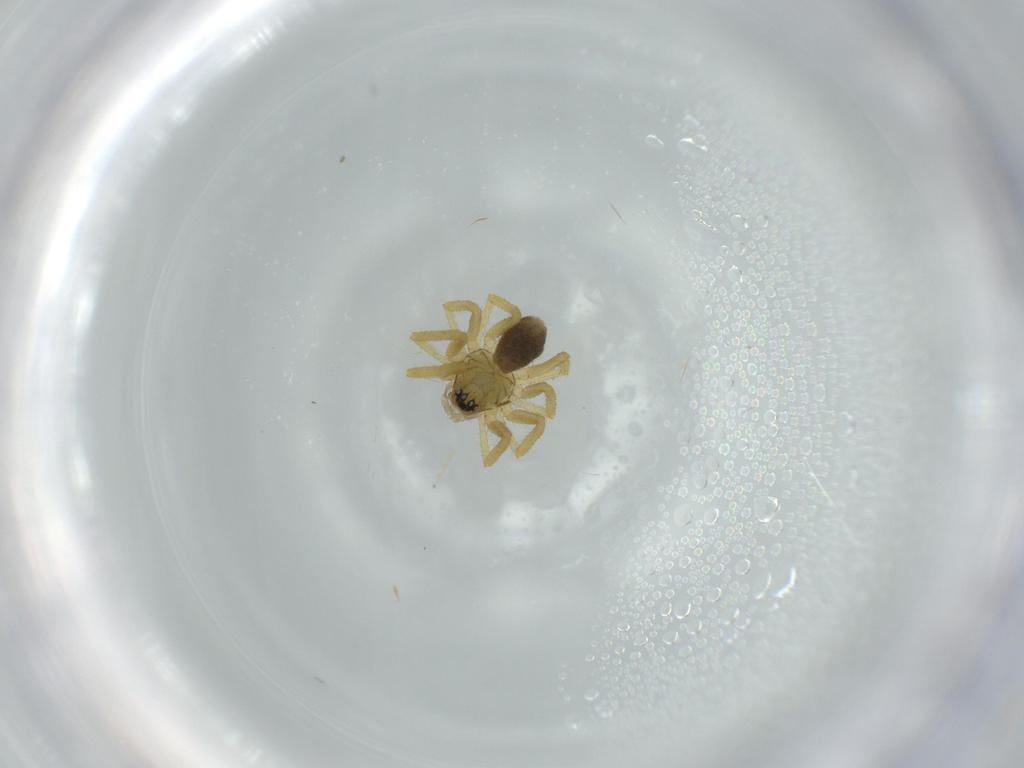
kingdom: Animalia
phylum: Arthropoda
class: Arachnida
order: Araneae
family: Linyphiidae
